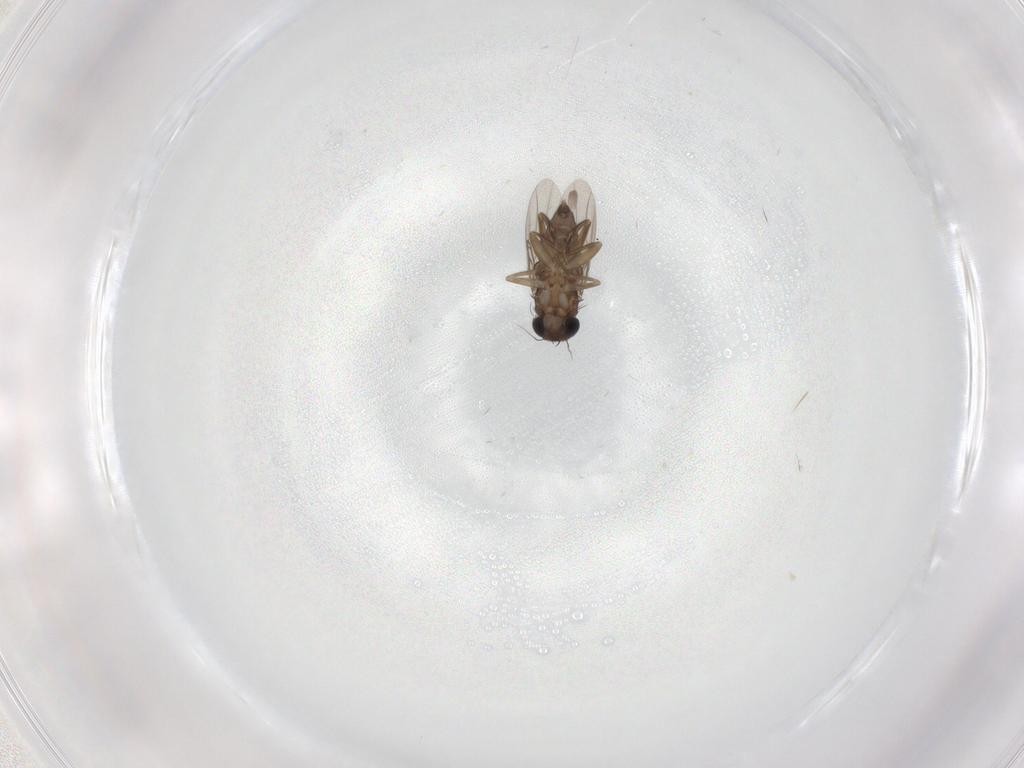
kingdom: Animalia
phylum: Arthropoda
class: Insecta
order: Diptera
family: Phoridae
